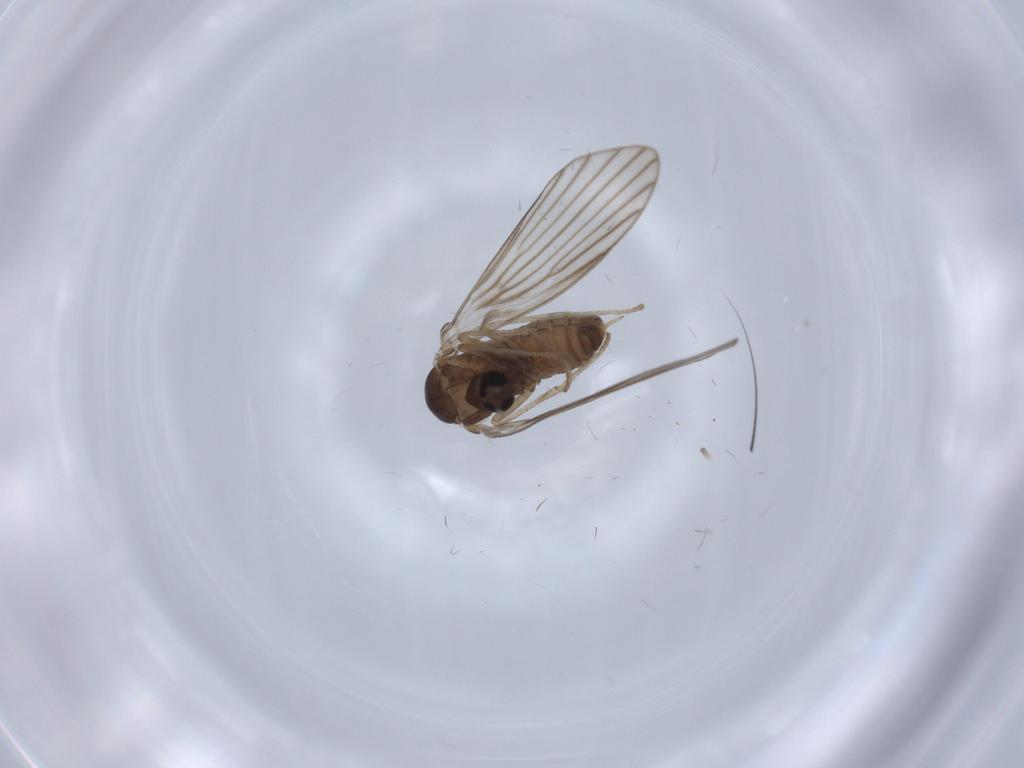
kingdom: Animalia
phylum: Arthropoda
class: Insecta
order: Diptera
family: Psychodidae
